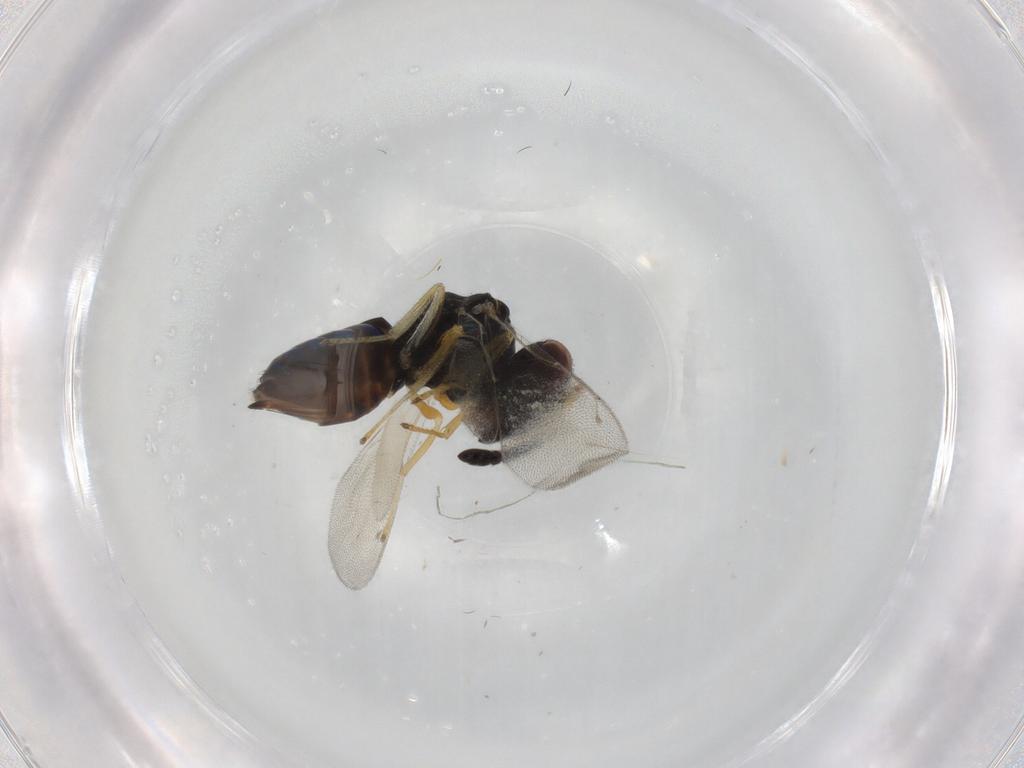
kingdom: Animalia
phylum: Arthropoda
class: Insecta
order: Hymenoptera
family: Pteromalidae
